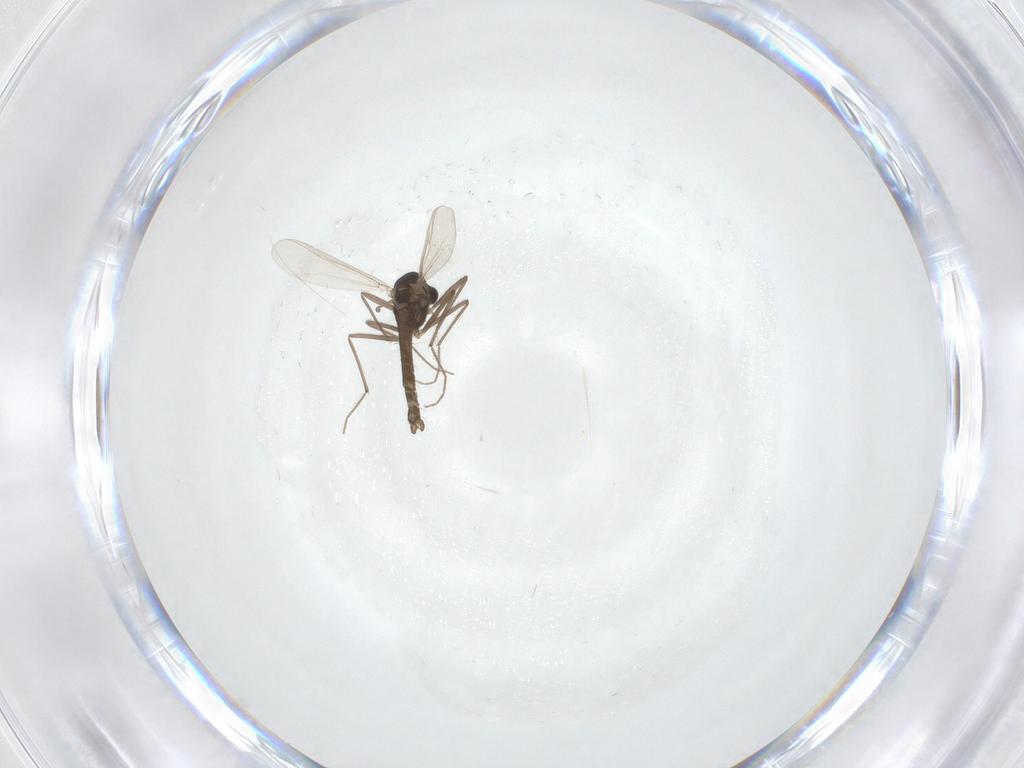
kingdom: Animalia
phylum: Arthropoda
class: Insecta
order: Diptera
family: Chironomidae
